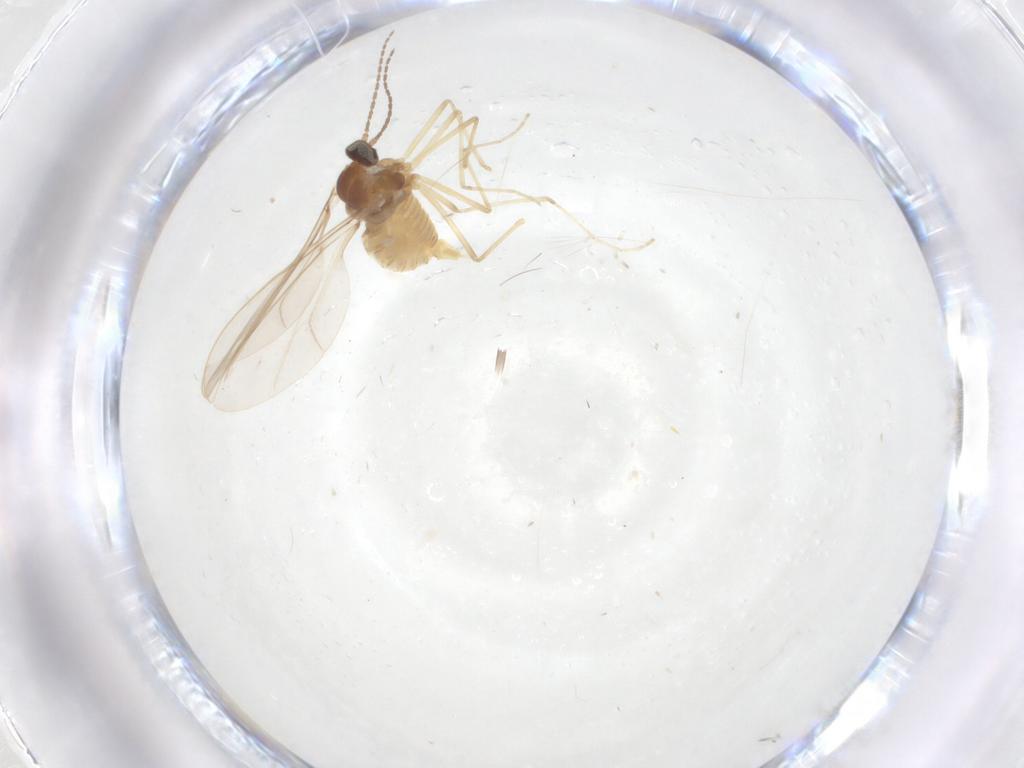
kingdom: Animalia
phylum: Arthropoda
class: Insecta
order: Diptera
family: Cecidomyiidae
